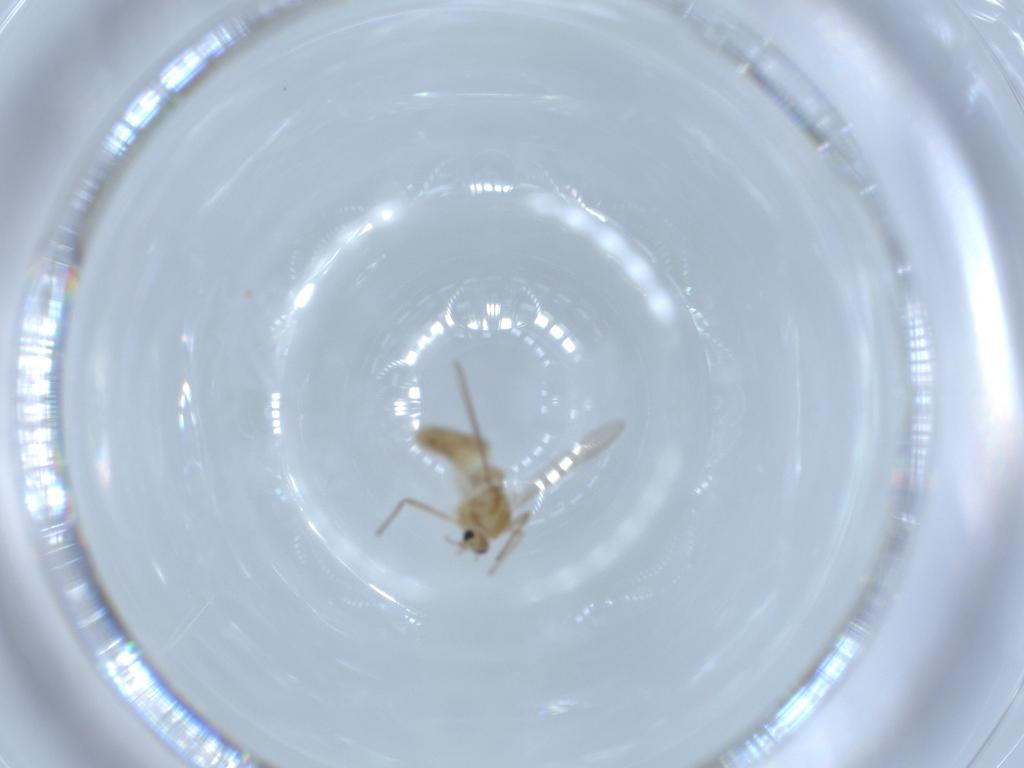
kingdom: Animalia
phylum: Arthropoda
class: Insecta
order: Diptera
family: Chironomidae
